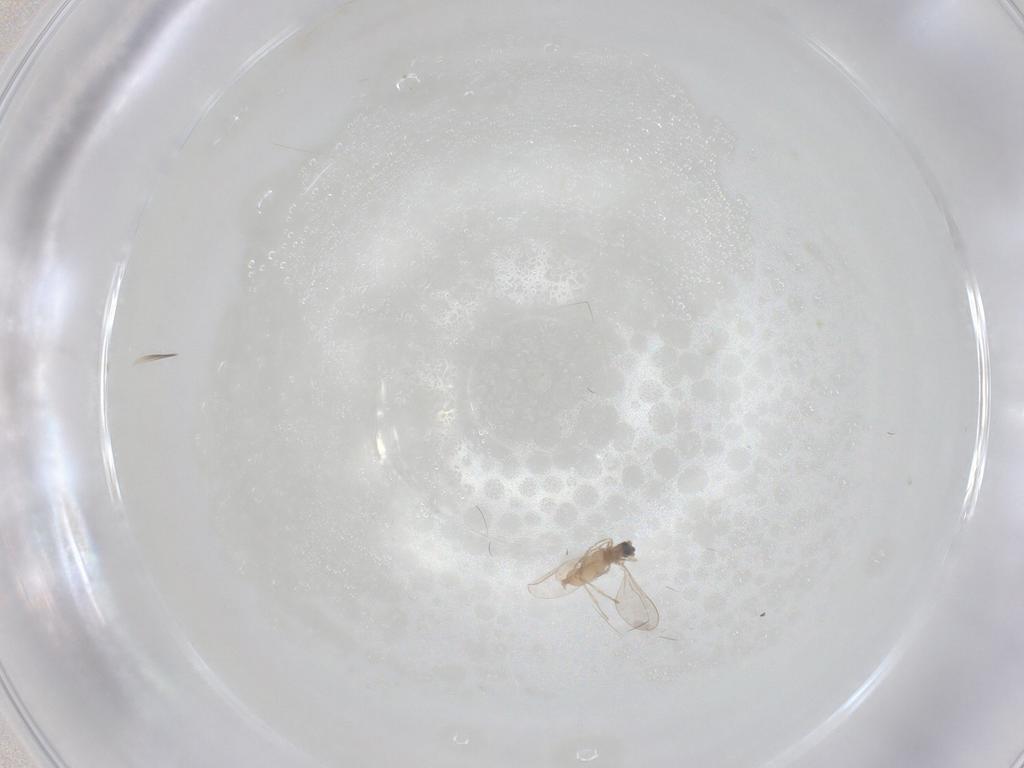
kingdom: Animalia
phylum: Arthropoda
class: Insecta
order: Diptera
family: Cecidomyiidae
